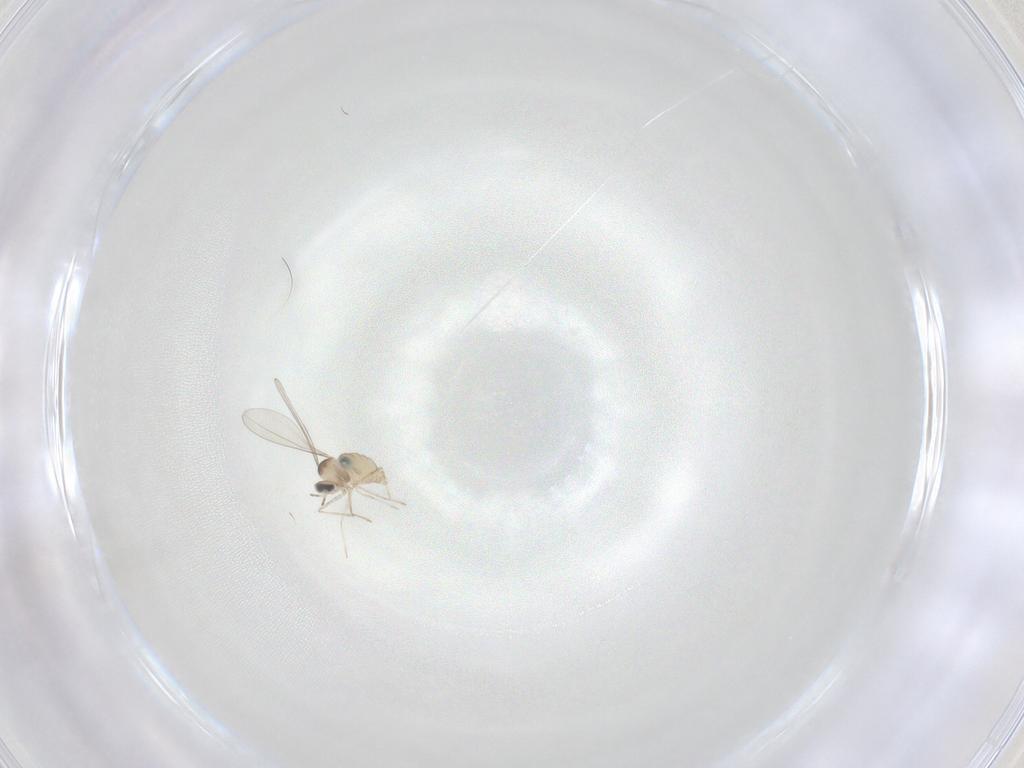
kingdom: Animalia
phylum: Arthropoda
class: Insecta
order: Diptera
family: Cecidomyiidae
